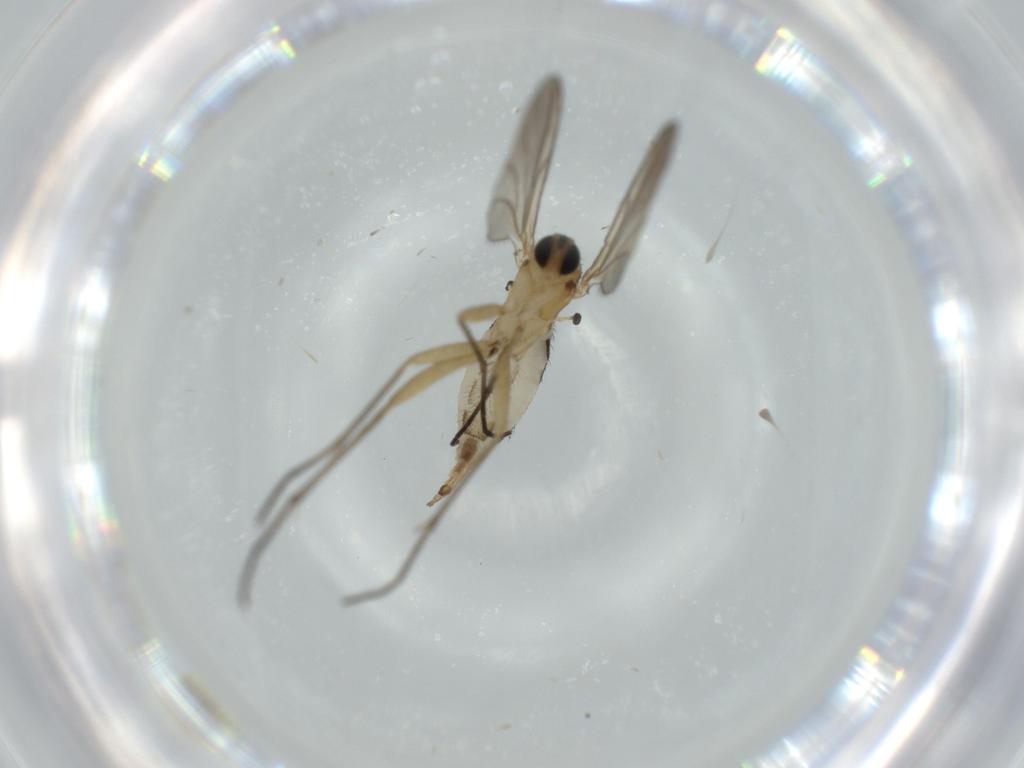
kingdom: Animalia
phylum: Arthropoda
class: Insecta
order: Diptera
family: Sciaridae
